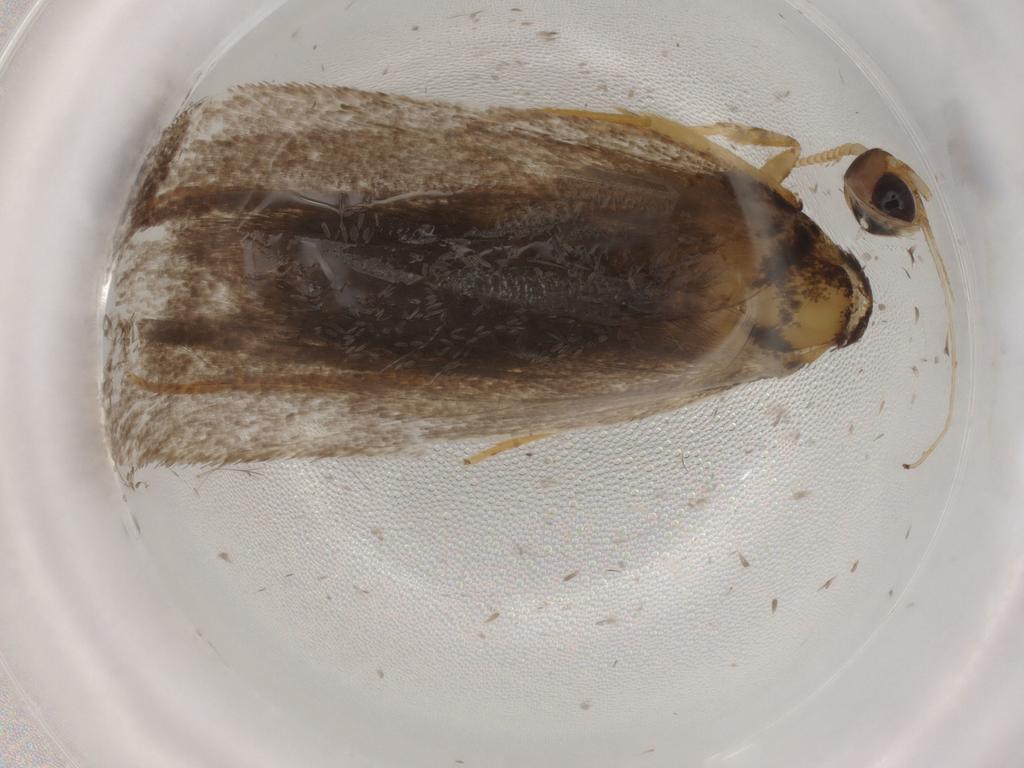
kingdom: Animalia
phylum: Arthropoda
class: Insecta
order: Lepidoptera
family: Lecithoceridae
